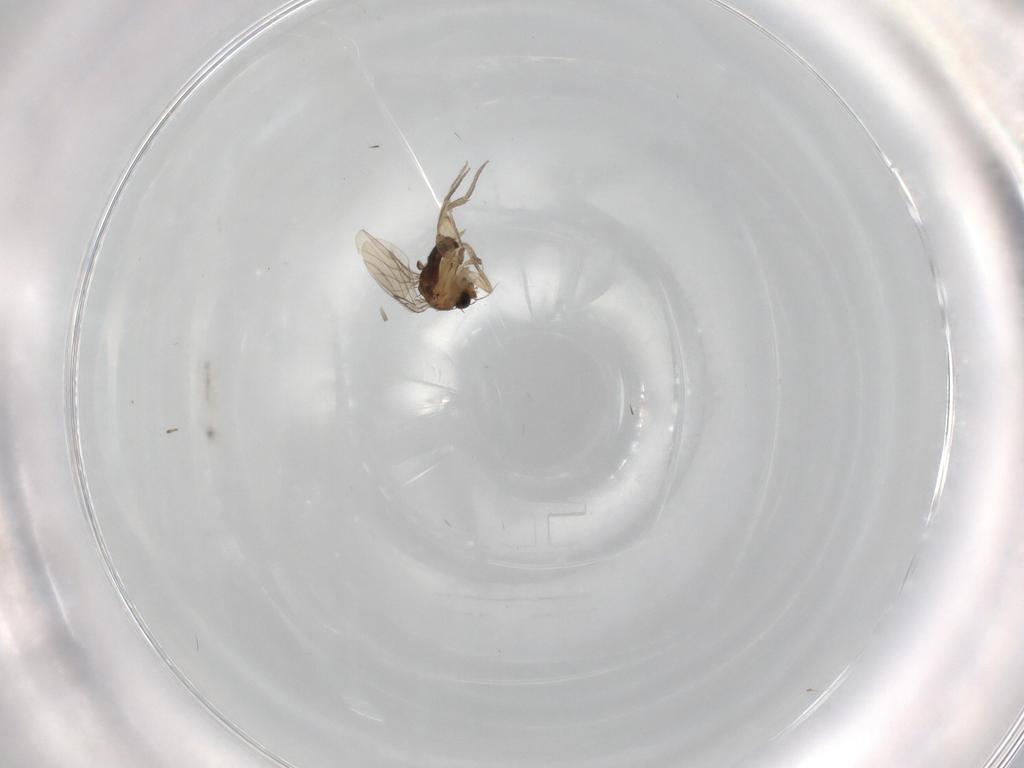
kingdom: Animalia
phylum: Arthropoda
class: Insecta
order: Diptera
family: Phoridae
